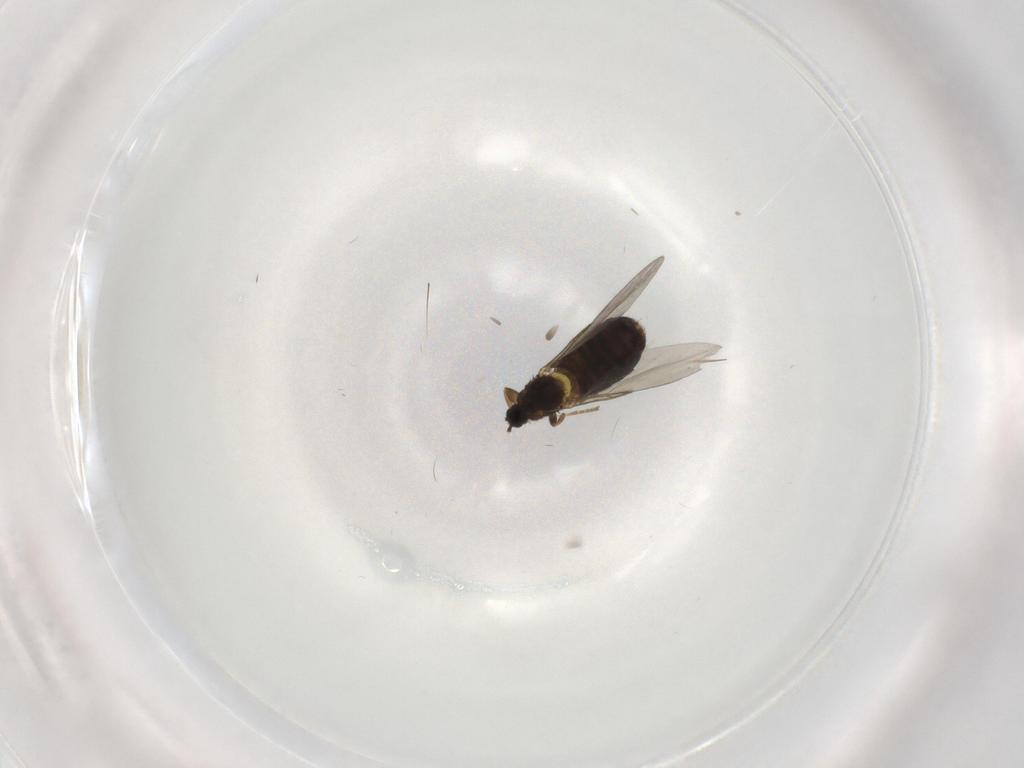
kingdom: Animalia
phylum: Arthropoda
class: Insecta
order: Diptera
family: Scatopsidae
